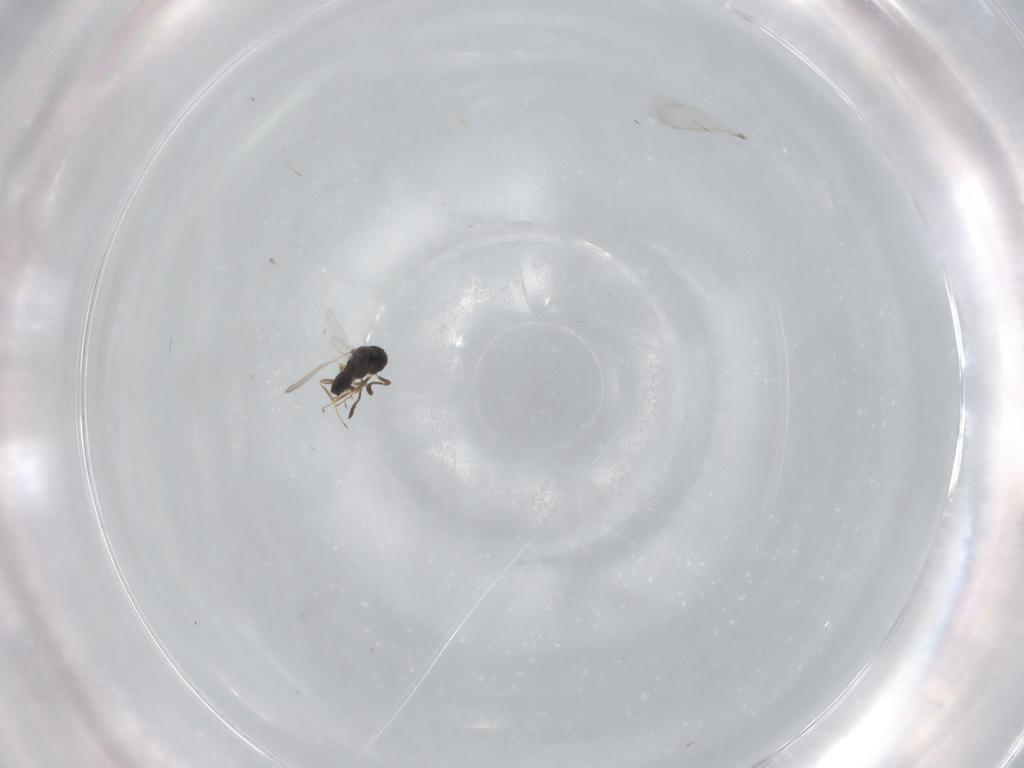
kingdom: Animalia
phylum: Arthropoda
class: Insecta
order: Hymenoptera
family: Scelionidae
